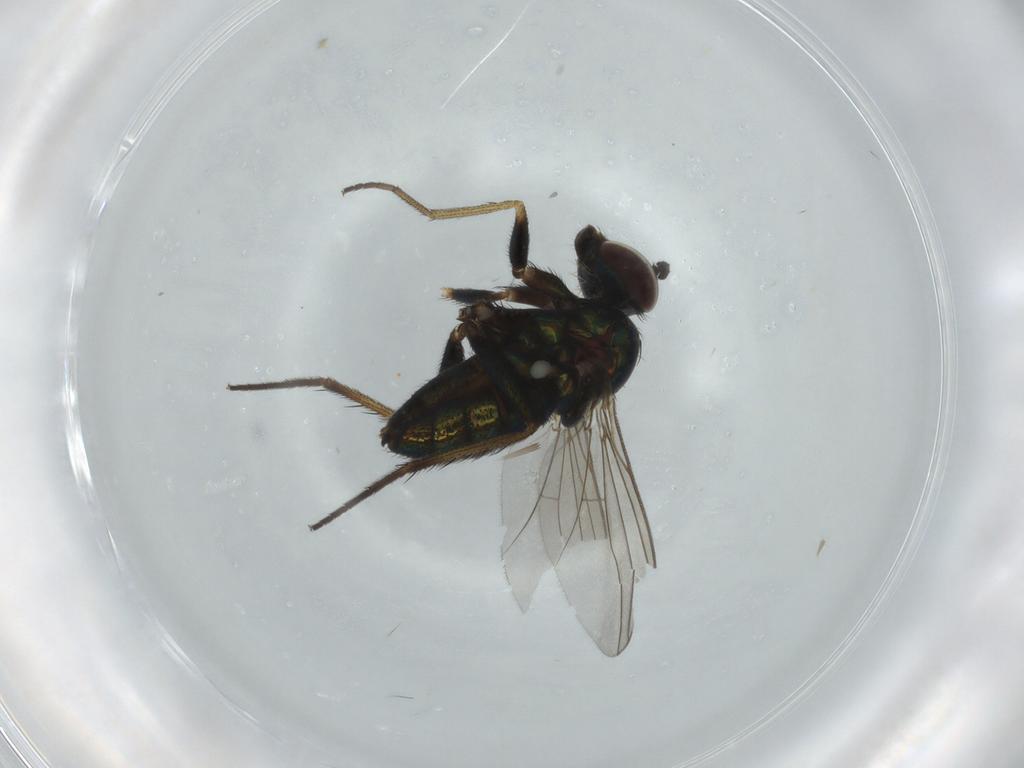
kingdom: Animalia
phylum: Arthropoda
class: Insecta
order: Diptera
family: Dolichopodidae
